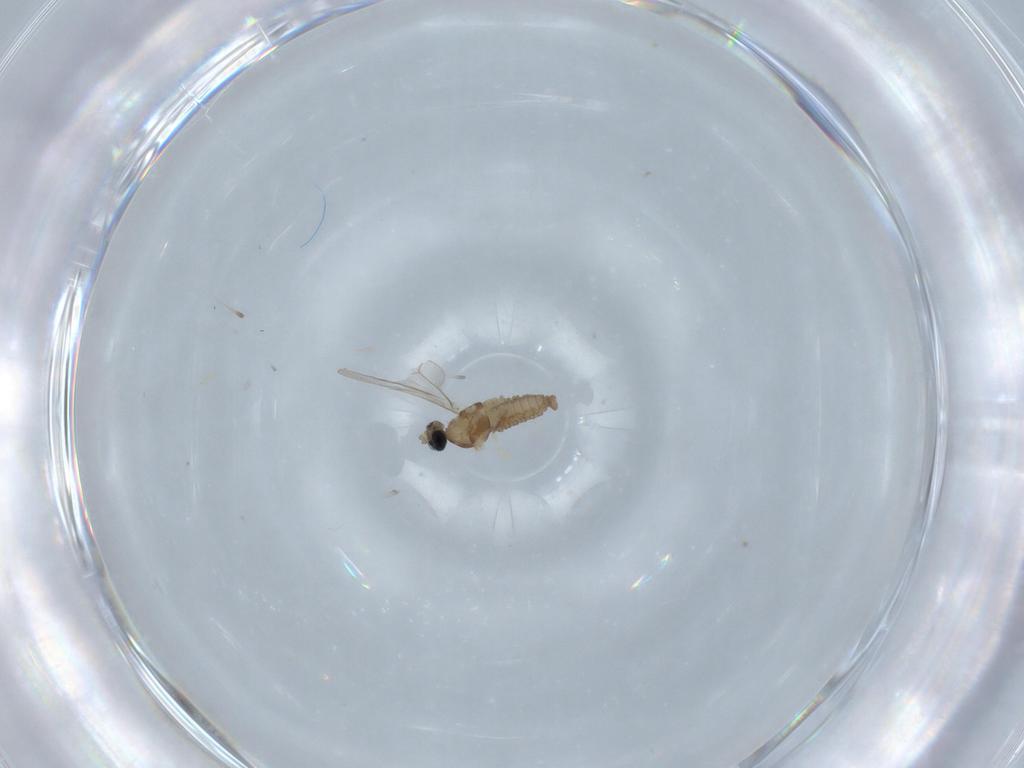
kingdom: Animalia
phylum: Arthropoda
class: Insecta
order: Diptera
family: Cecidomyiidae
